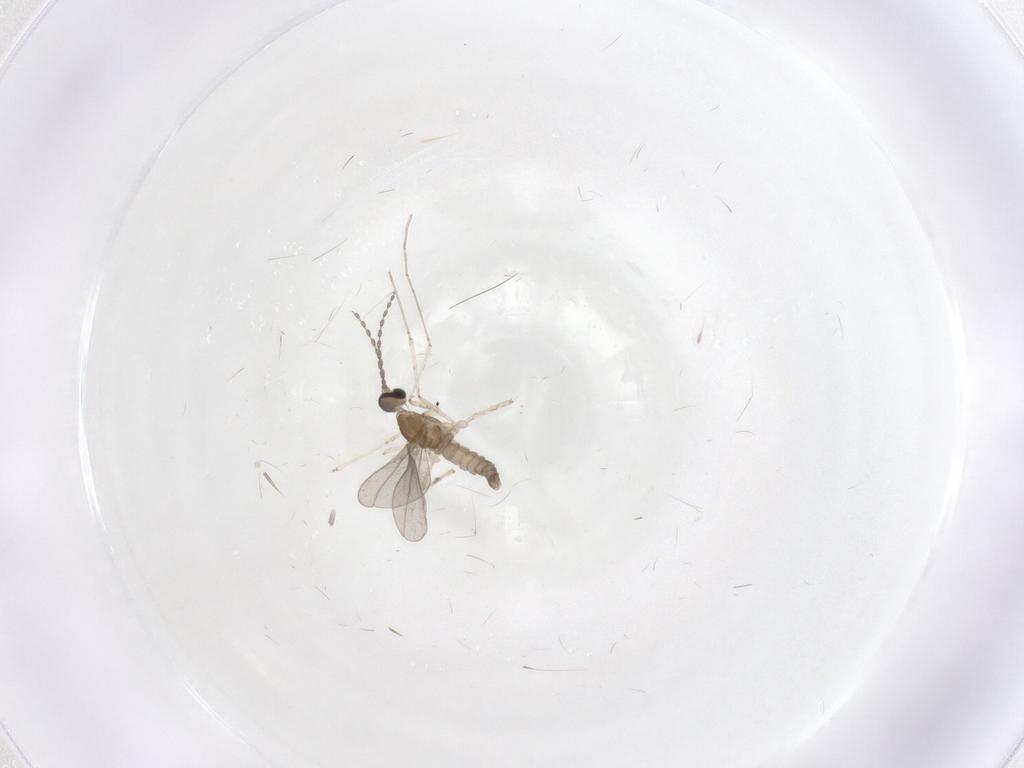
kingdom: Animalia
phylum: Arthropoda
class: Insecta
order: Diptera
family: Cecidomyiidae
